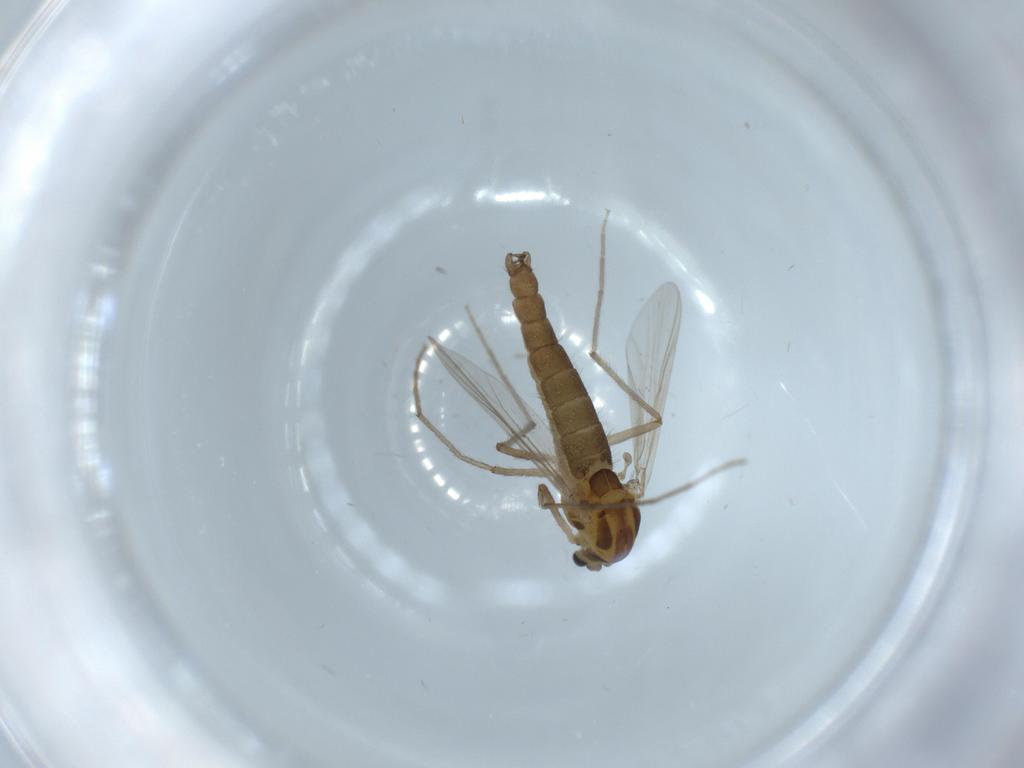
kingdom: Animalia
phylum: Arthropoda
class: Insecta
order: Diptera
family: Chironomidae
